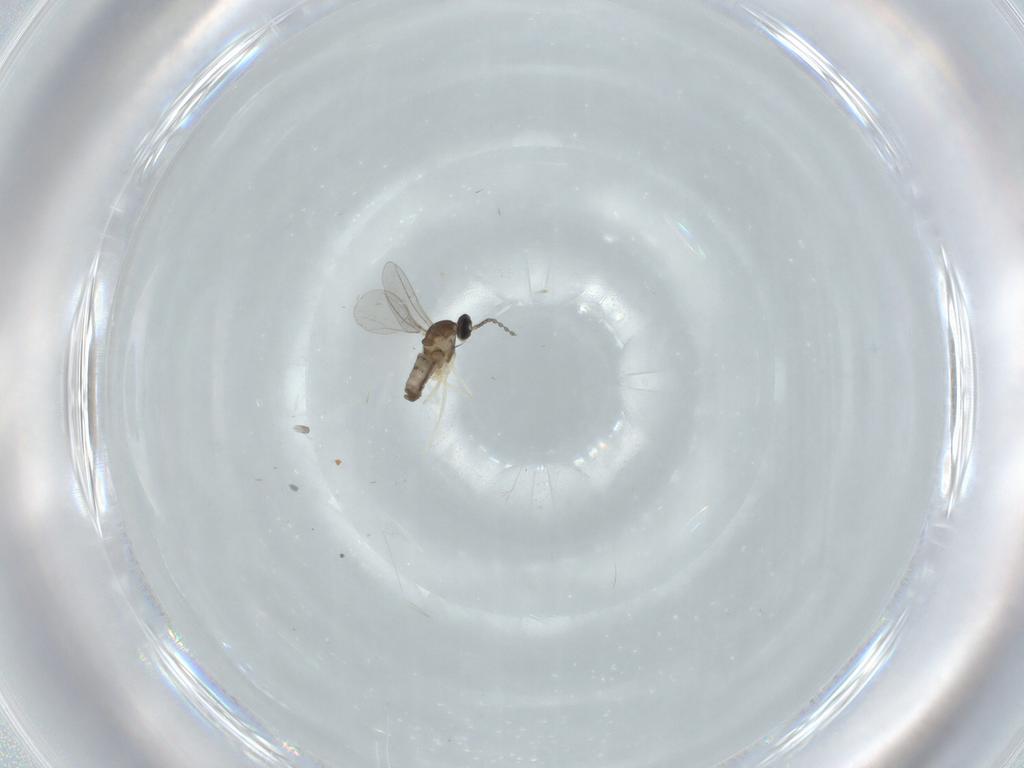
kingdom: Animalia
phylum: Arthropoda
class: Insecta
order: Diptera
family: Cecidomyiidae
